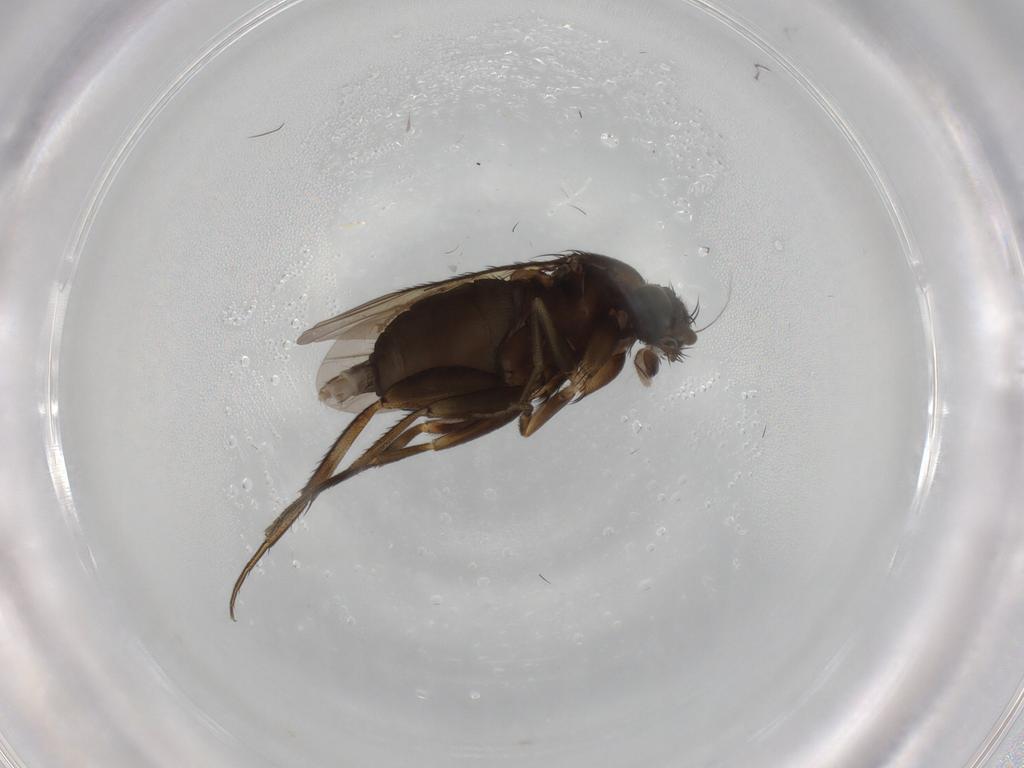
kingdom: Animalia
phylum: Arthropoda
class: Insecta
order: Diptera
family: Psychodidae
